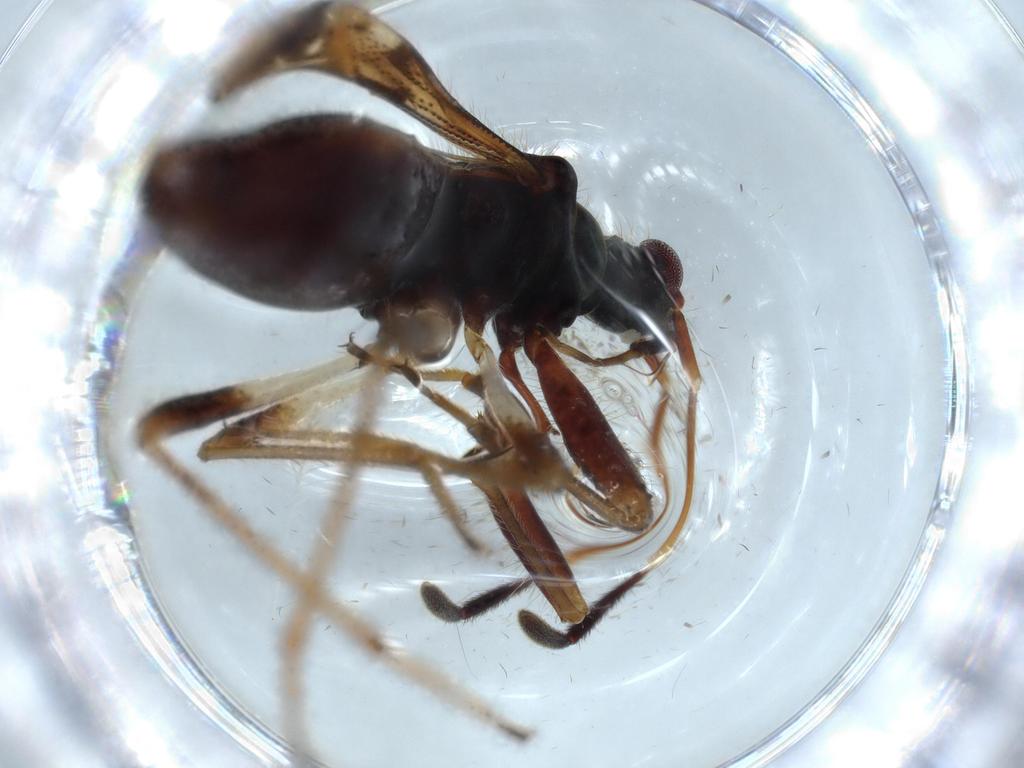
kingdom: Animalia
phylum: Arthropoda
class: Insecta
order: Hemiptera
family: Rhyparochromidae
